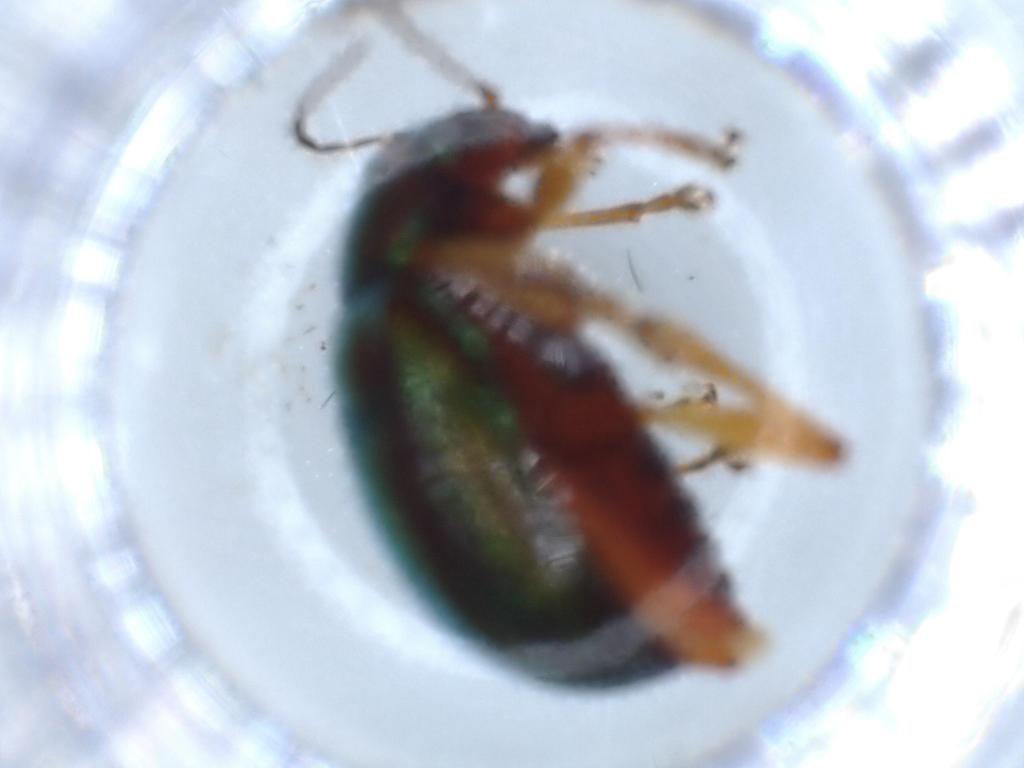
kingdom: Animalia
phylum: Arthropoda
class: Insecta
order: Coleoptera
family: Chrysomelidae
